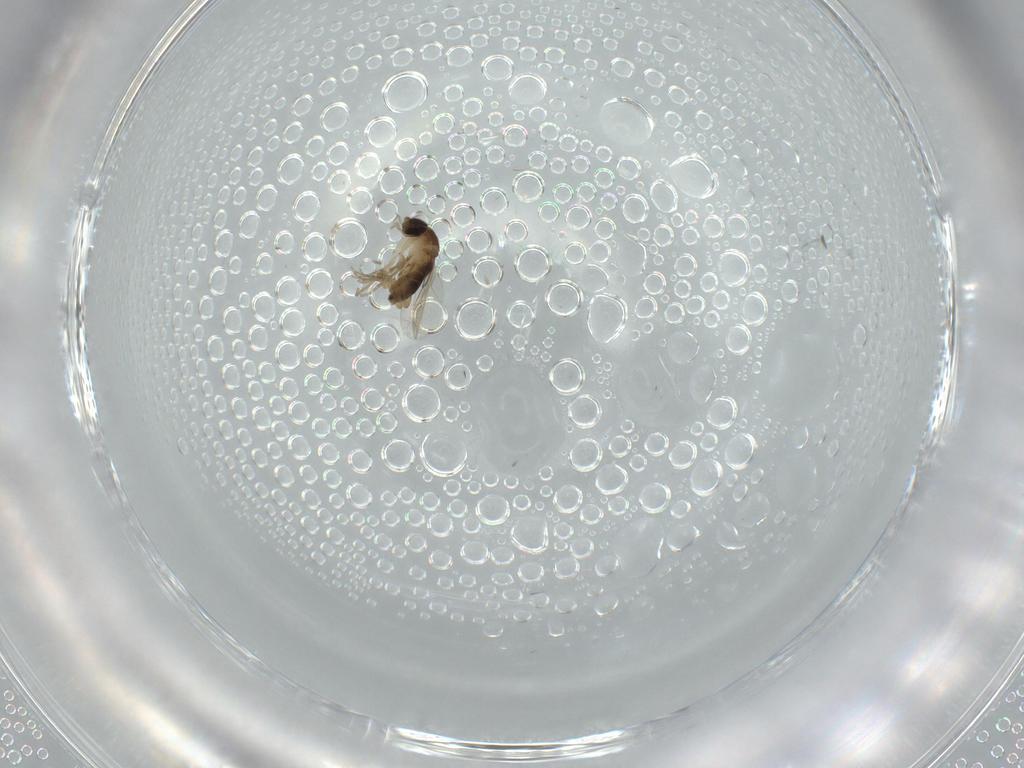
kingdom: Animalia
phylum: Arthropoda
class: Insecta
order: Diptera
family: Phoridae
